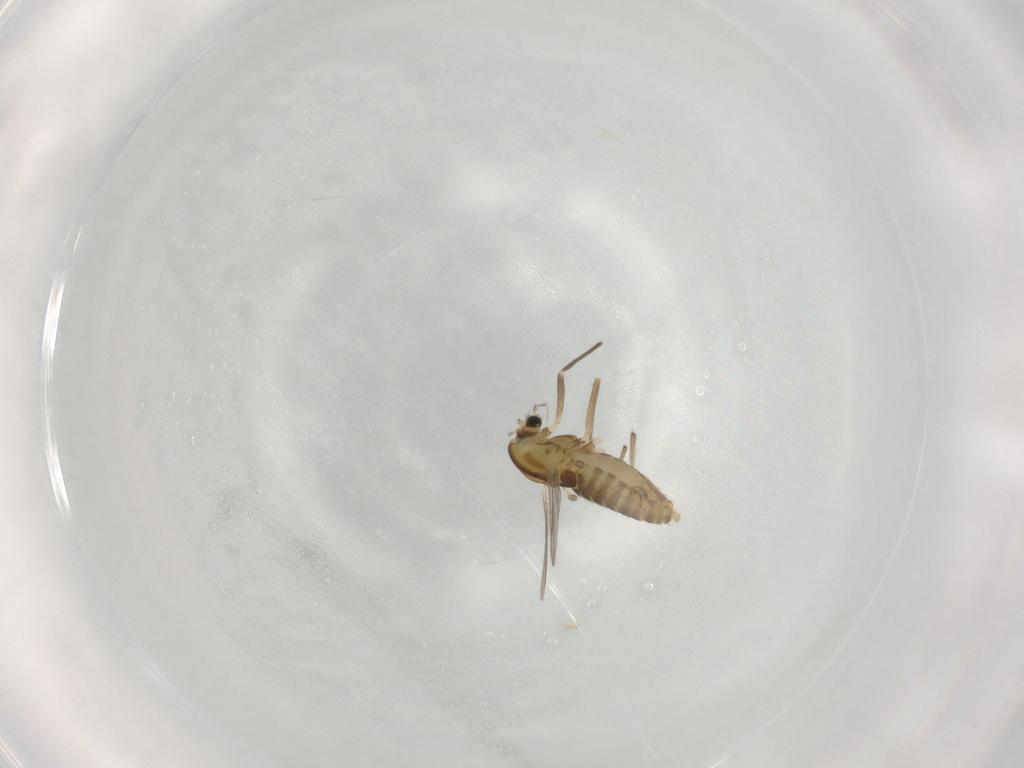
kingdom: Animalia
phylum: Arthropoda
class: Insecta
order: Diptera
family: Chironomidae
